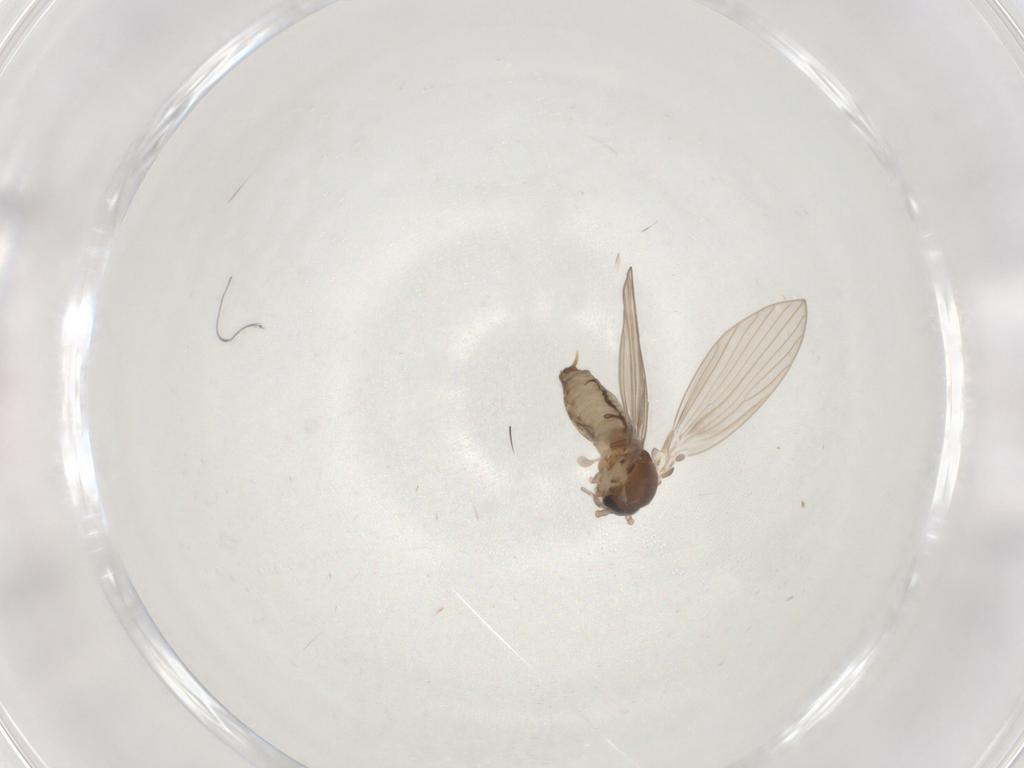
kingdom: Animalia
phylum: Arthropoda
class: Insecta
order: Diptera
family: Psychodidae
